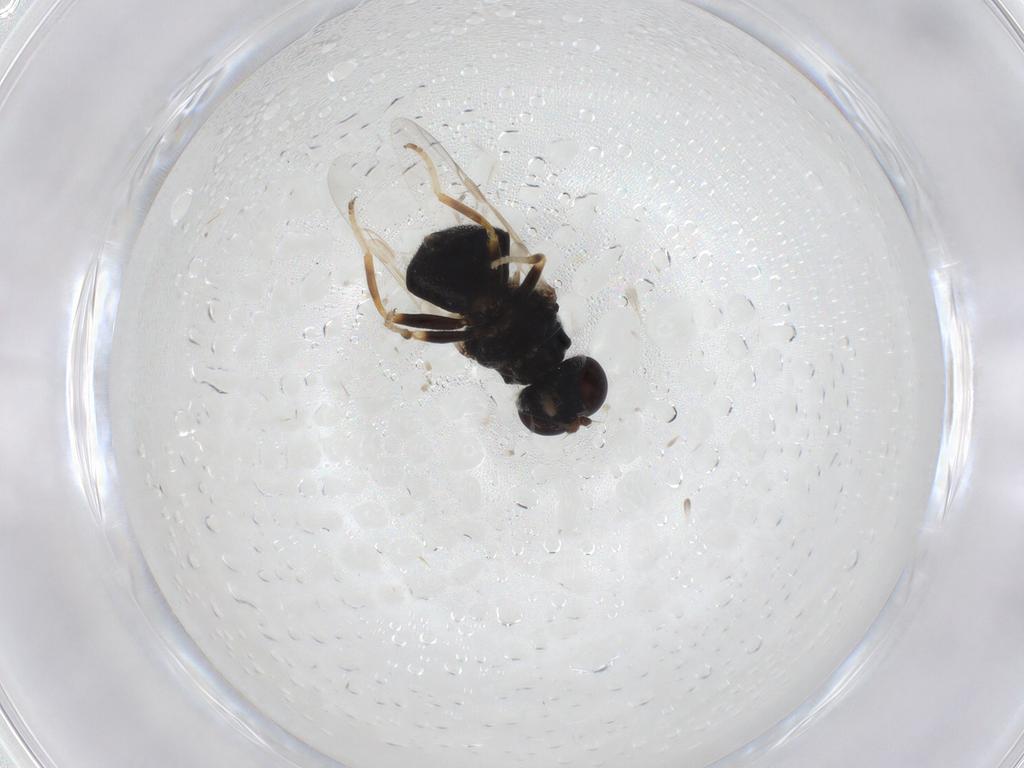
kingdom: Animalia
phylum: Arthropoda
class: Insecta
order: Diptera
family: Stratiomyidae
